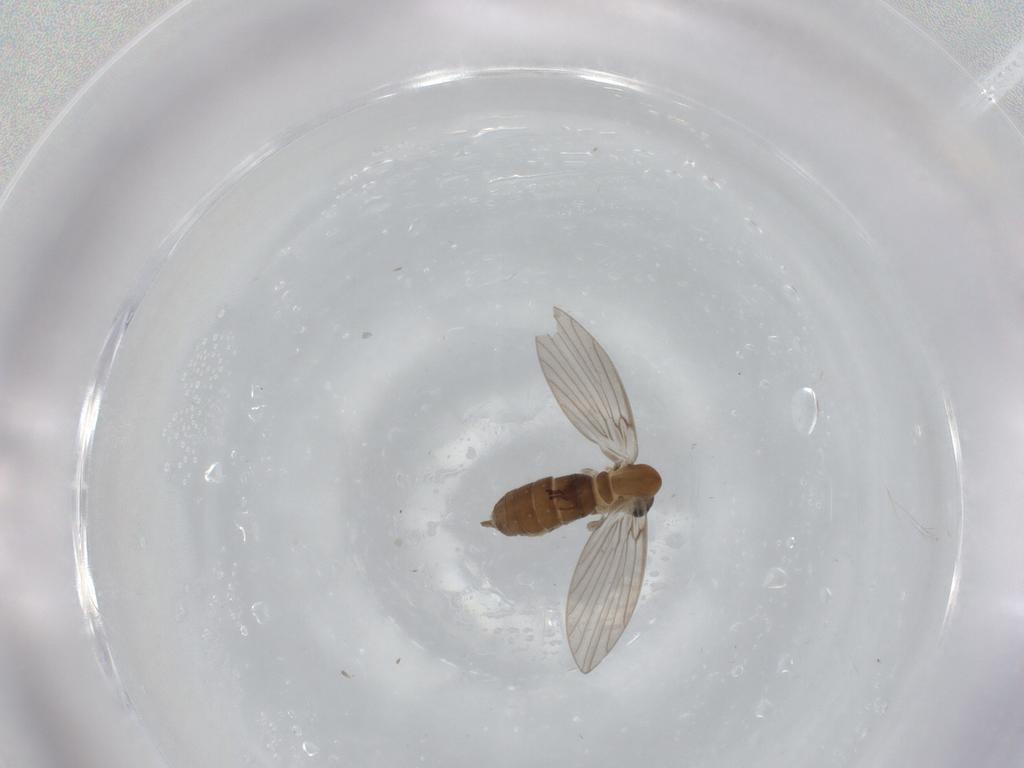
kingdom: Animalia
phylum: Arthropoda
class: Insecta
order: Diptera
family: Psychodidae
